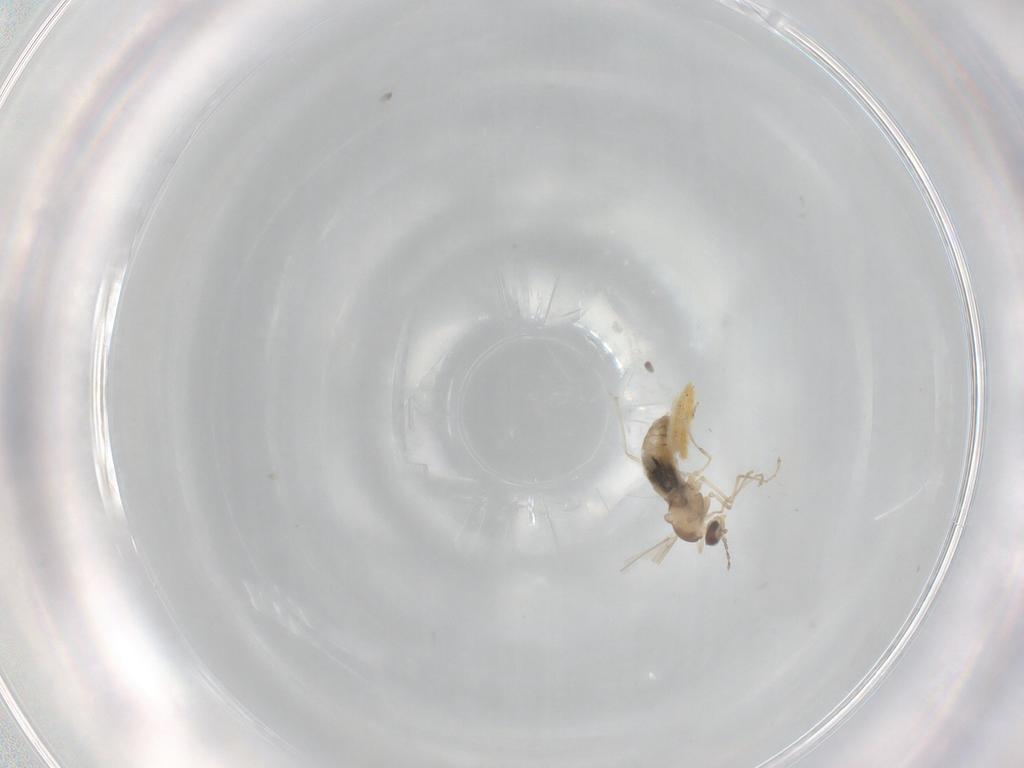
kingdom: Animalia
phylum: Arthropoda
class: Insecta
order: Diptera
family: Cecidomyiidae
